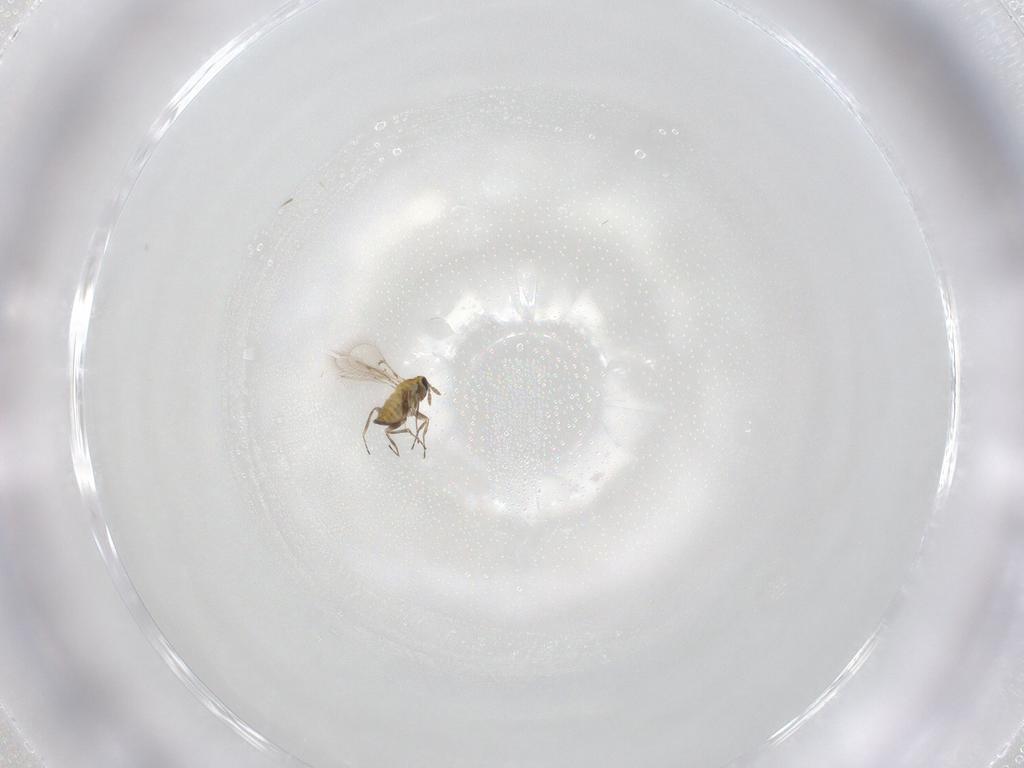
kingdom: Animalia
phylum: Arthropoda
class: Insecta
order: Hymenoptera
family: Trichogrammatidae
